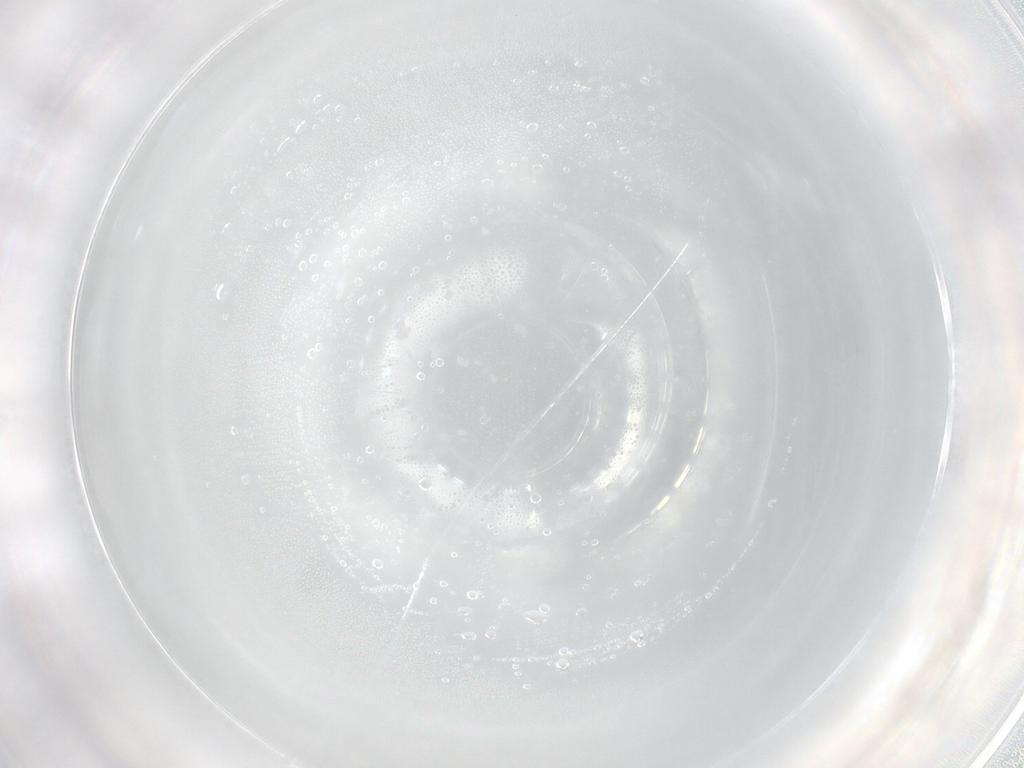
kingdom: Animalia
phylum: Arthropoda
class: Insecta
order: Thysanoptera
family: Aeolothripidae
